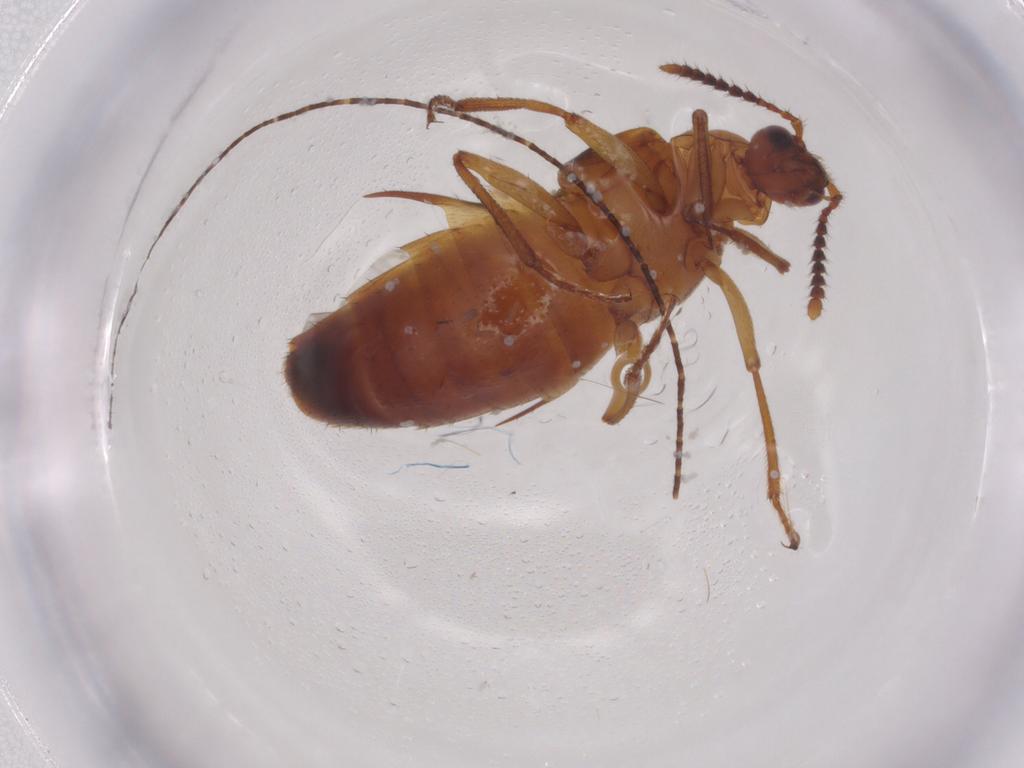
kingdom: Animalia
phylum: Arthropoda
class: Insecta
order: Coleoptera
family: Staphylinidae
